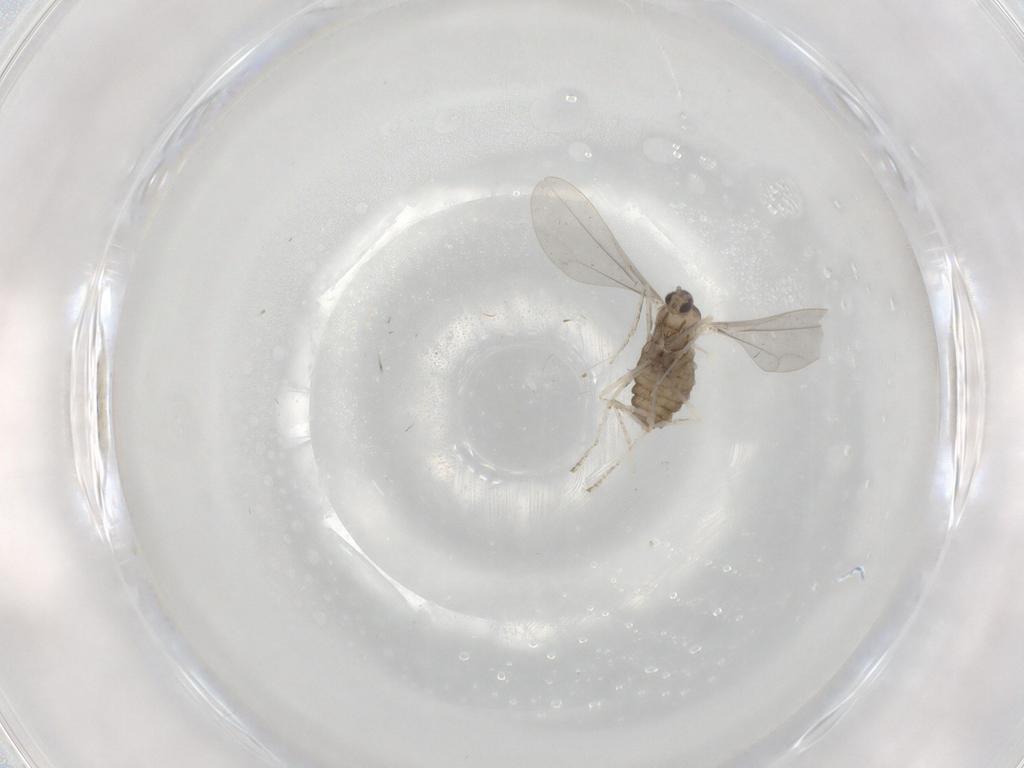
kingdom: Animalia
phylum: Arthropoda
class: Insecta
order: Diptera
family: Cecidomyiidae
